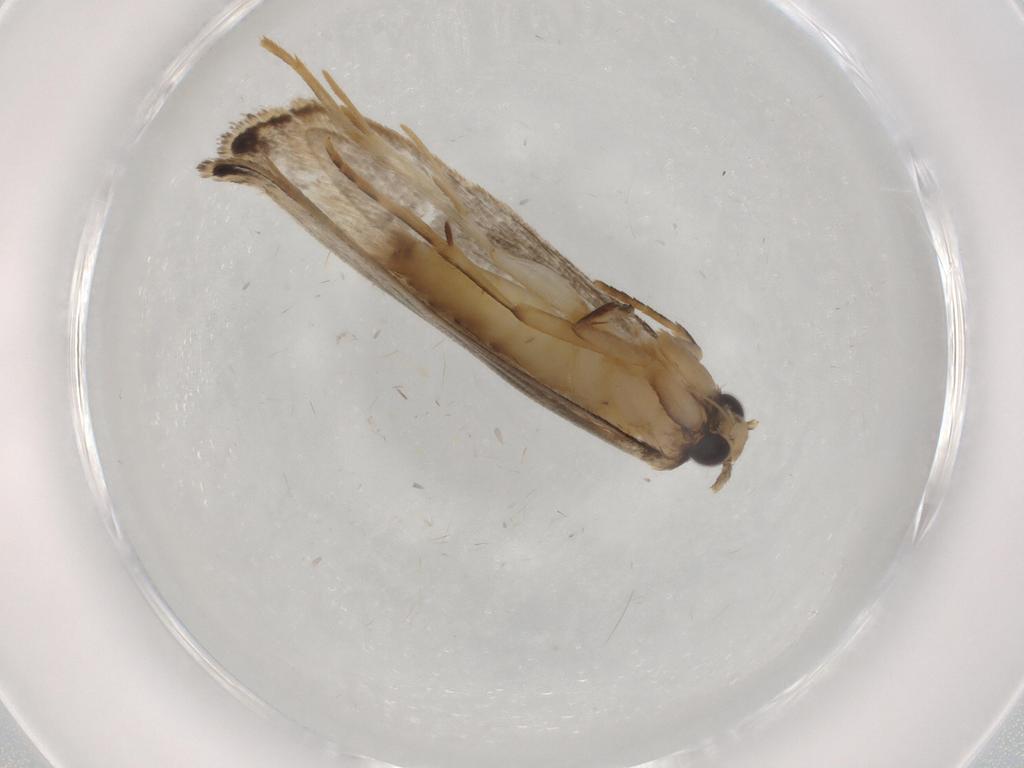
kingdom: Animalia
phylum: Arthropoda
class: Insecta
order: Lepidoptera
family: Tineidae
